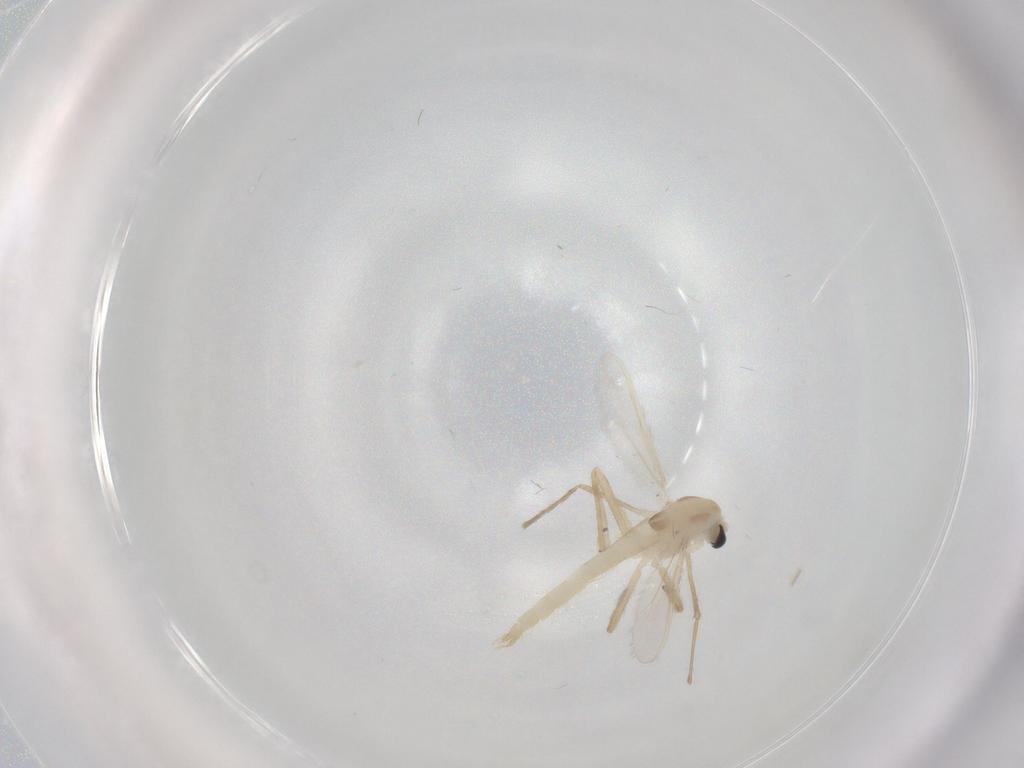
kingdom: Animalia
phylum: Arthropoda
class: Insecta
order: Diptera
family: Chironomidae
